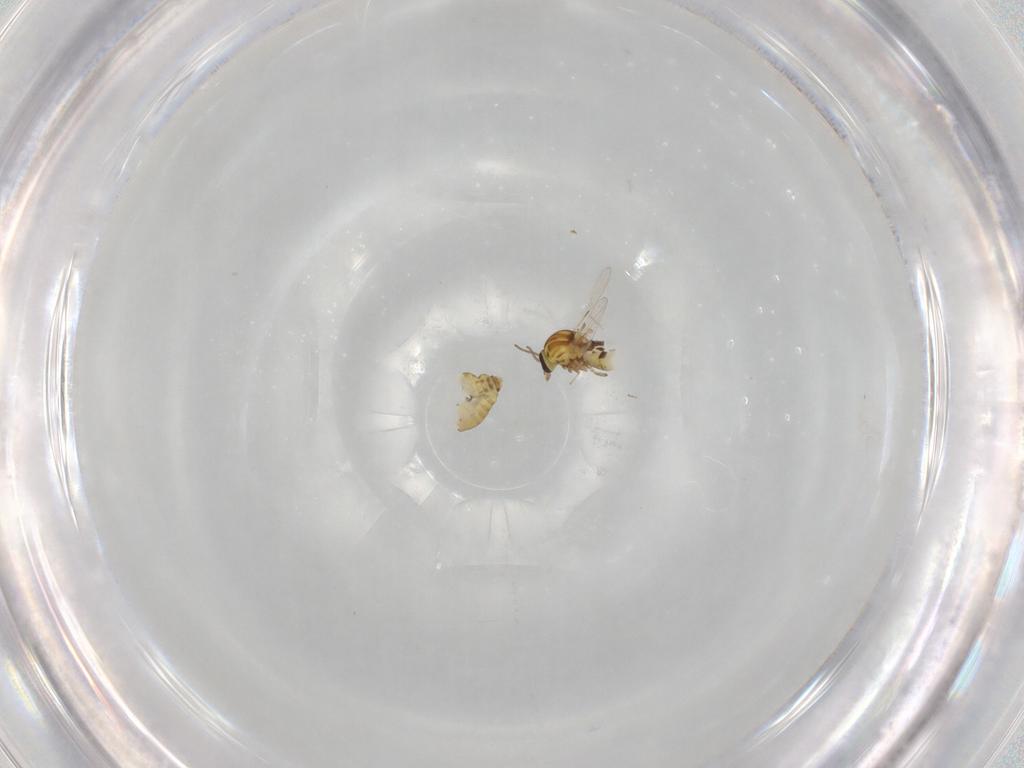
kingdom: Animalia
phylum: Arthropoda
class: Insecta
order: Diptera
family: Ceratopogonidae
